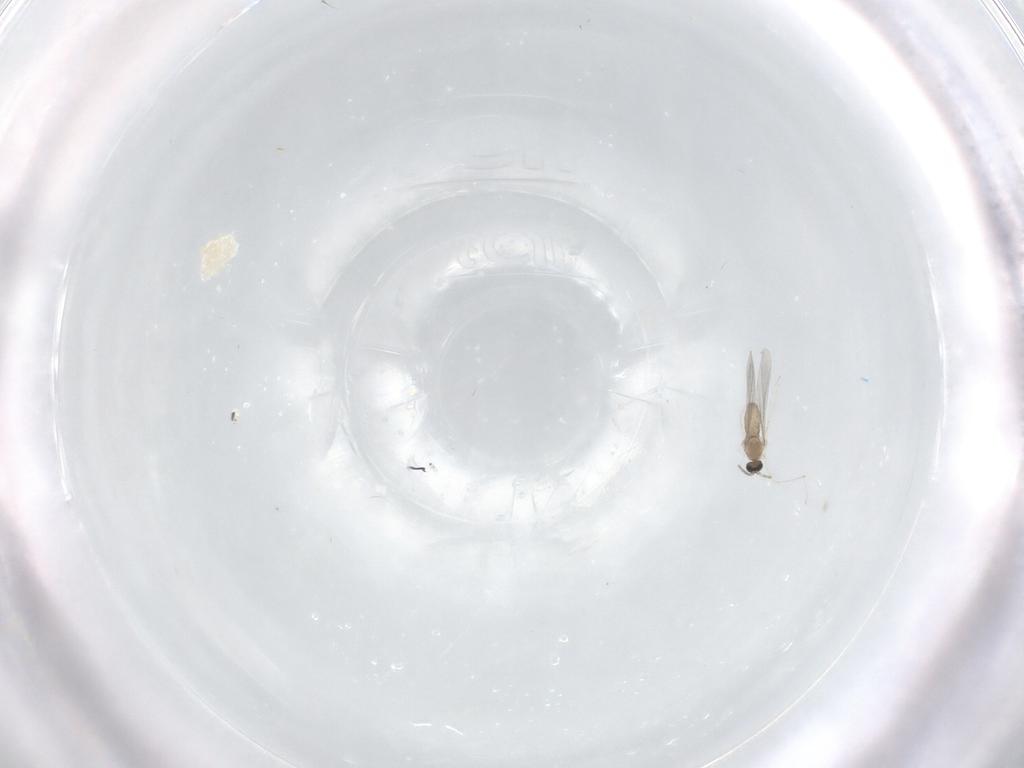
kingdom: Animalia
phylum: Arthropoda
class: Insecta
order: Diptera
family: Cecidomyiidae
